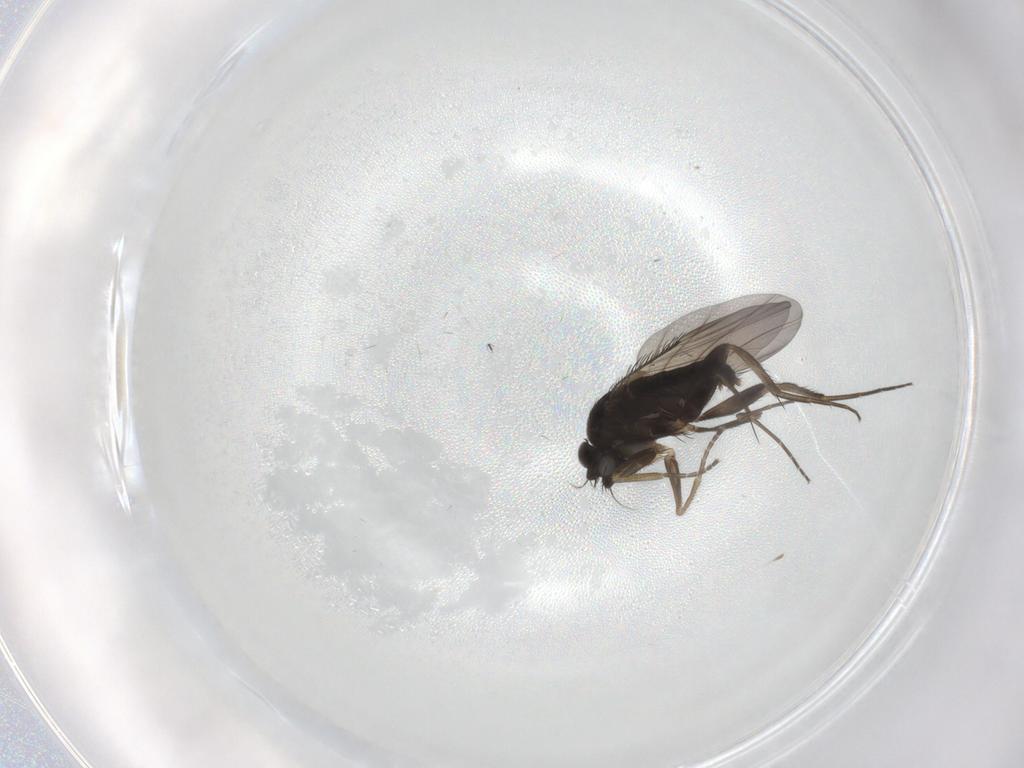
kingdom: Animalia
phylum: Arthropoda
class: Insecta
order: Diptera
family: Phoridae
